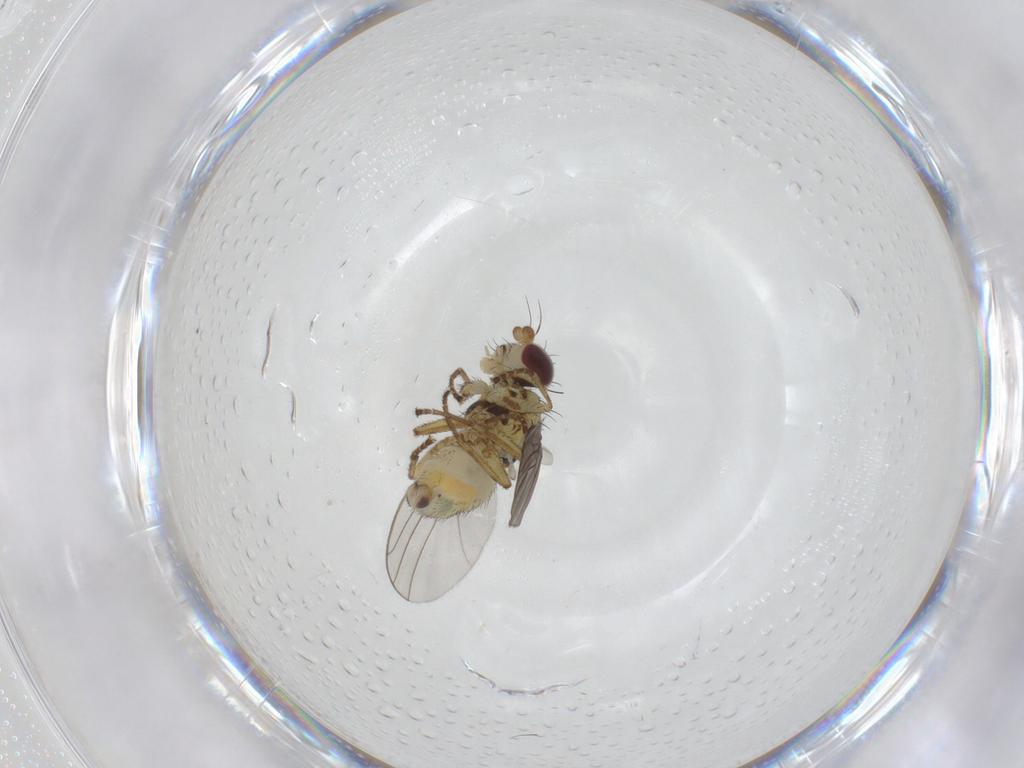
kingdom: Animalia
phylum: Arthropoda
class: Insecta
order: Diptera
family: Agromyzidae
